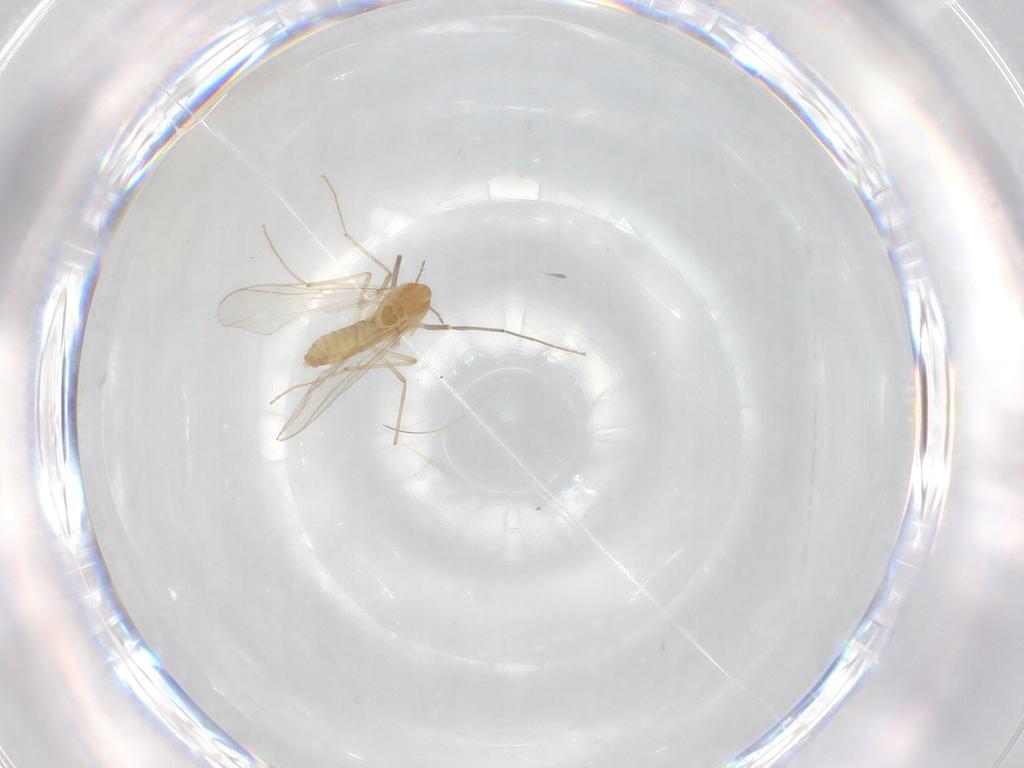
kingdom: Animalia
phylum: Arthropoda
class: Insecta
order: Diptera
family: Chironomidae
